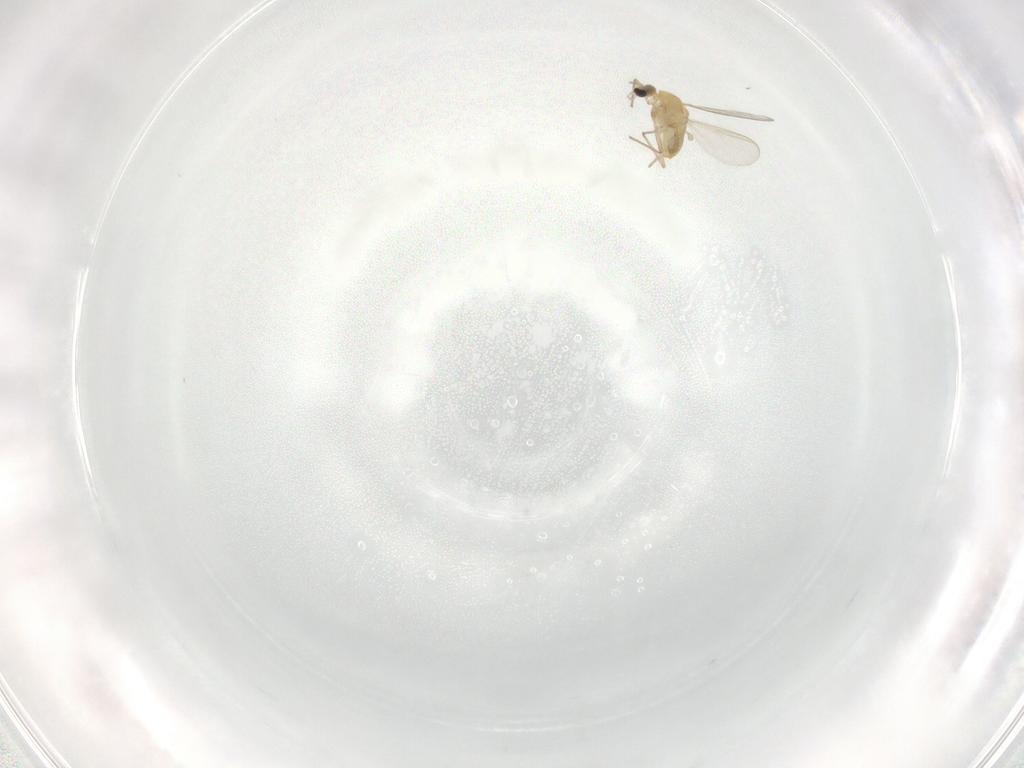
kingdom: Animalia
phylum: Arthropoda
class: Insecta
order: Diptera
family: Chironomidae
